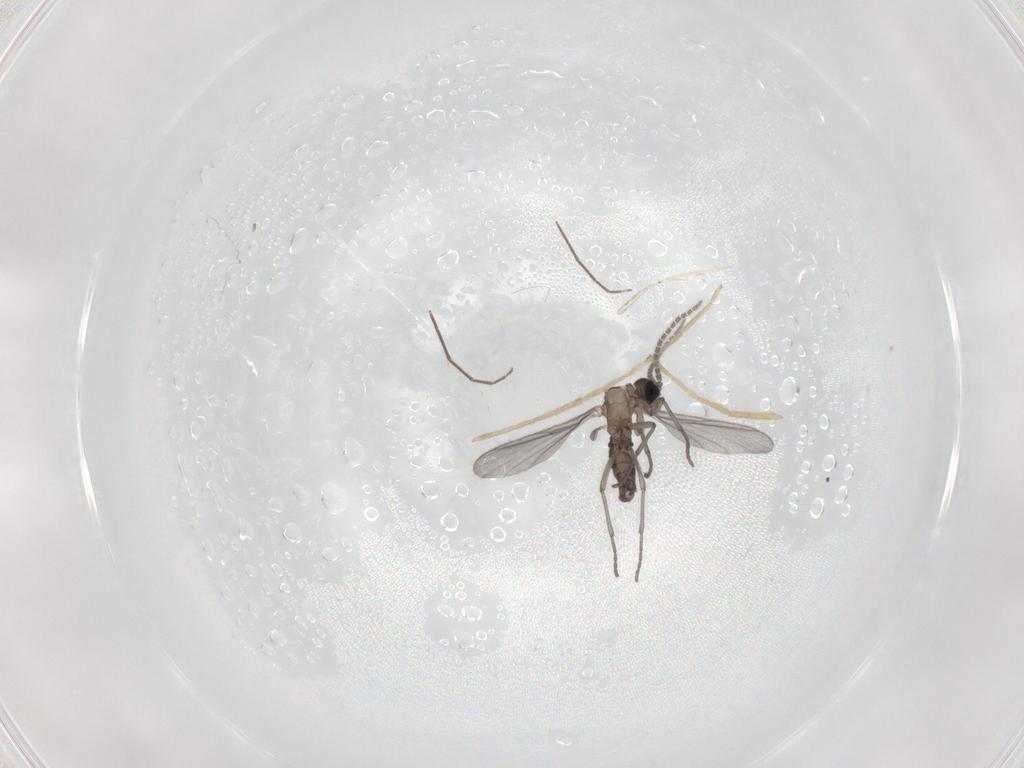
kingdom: Animalia
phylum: Arthropoda
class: Insecta
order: Diptera
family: Sciaridae
